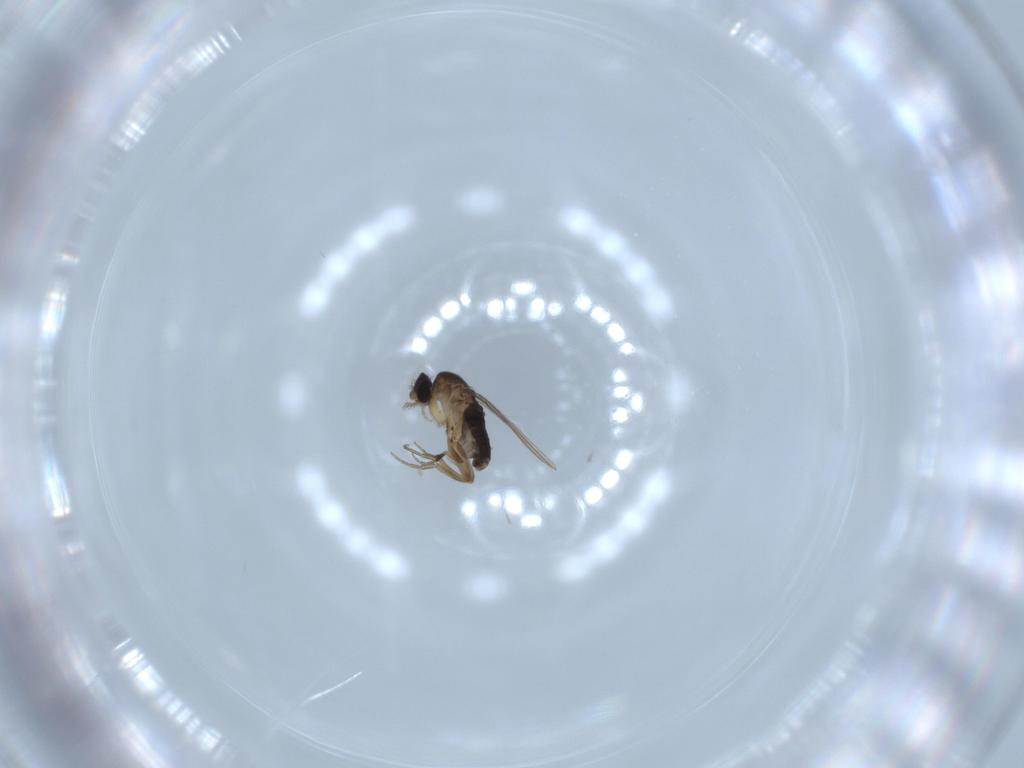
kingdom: Animalia
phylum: Arthropoda
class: Insecta
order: Diptera
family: Phoridae
